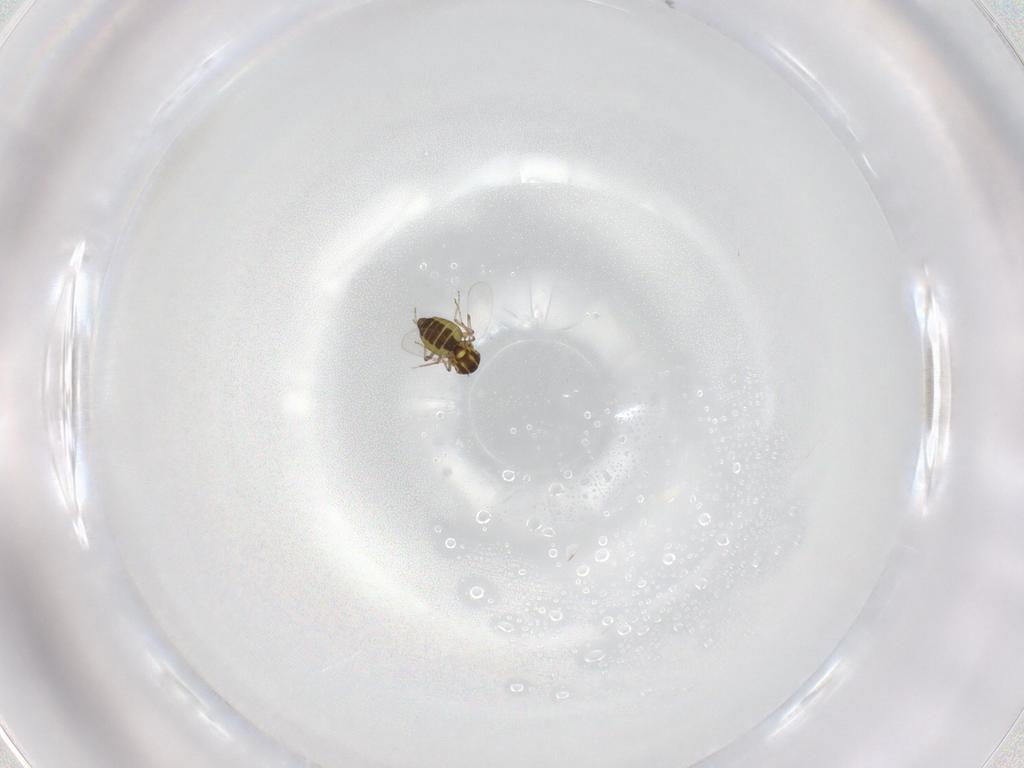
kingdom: Animalia
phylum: Arthropoda
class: Insecta
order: Diptera
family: Ceratopogonidae
